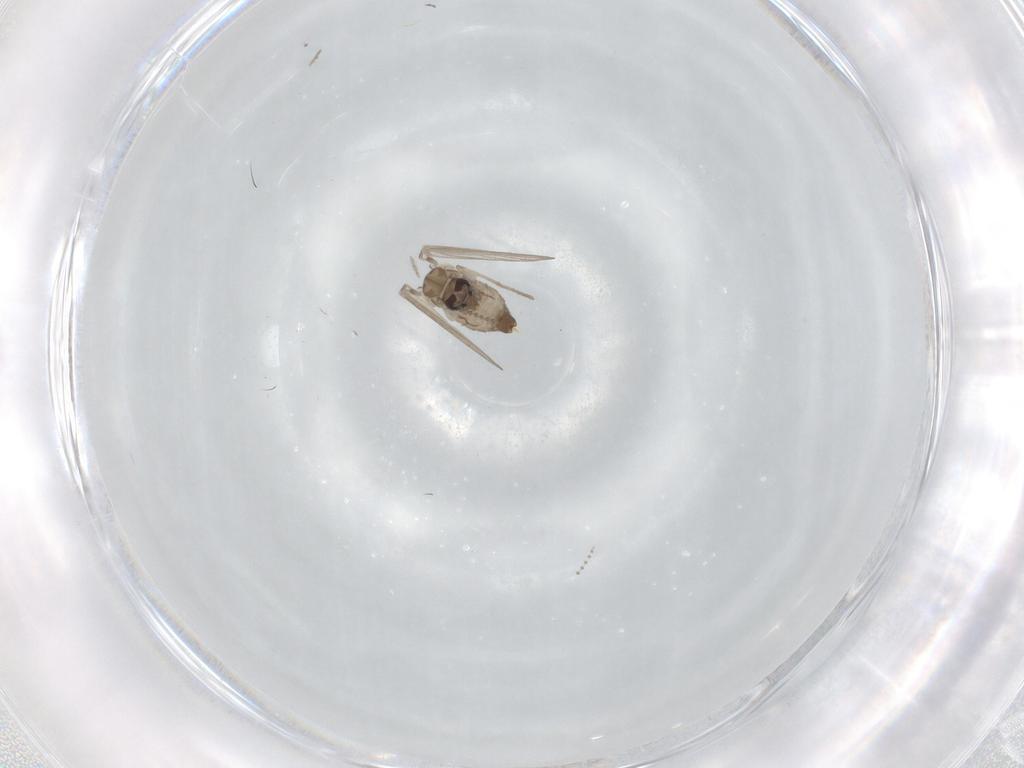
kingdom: Animalia
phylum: Arthropoda
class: Insecta
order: Diptera
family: Psychodidae
